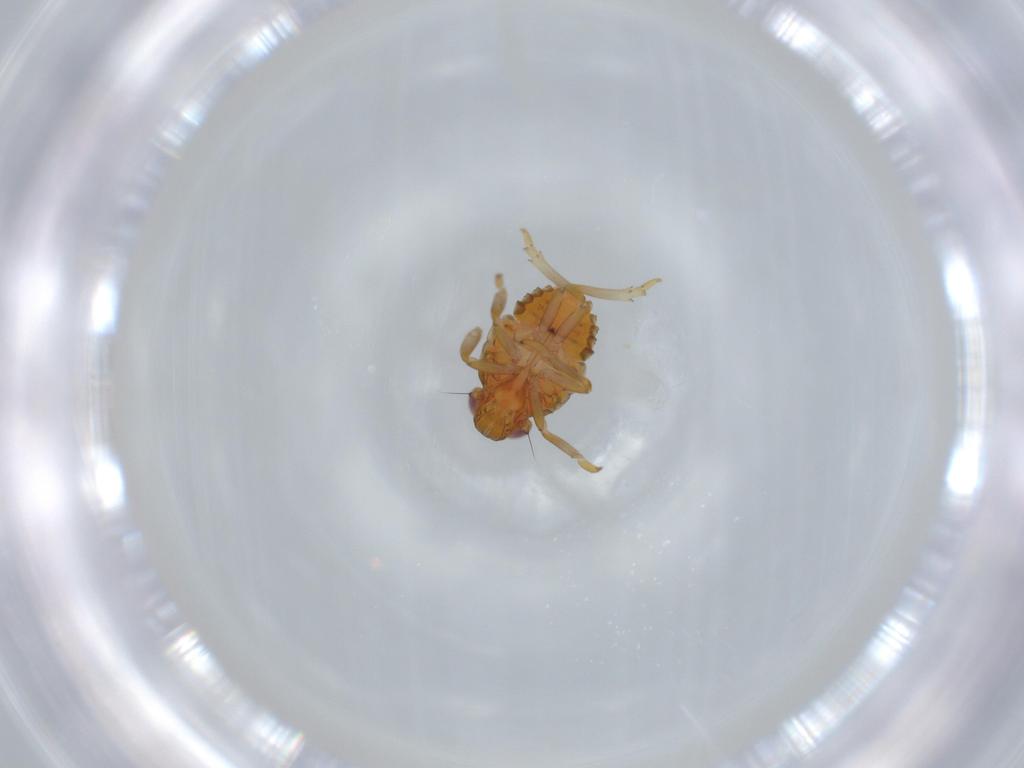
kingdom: Animalia
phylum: Arthropoda
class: Insecta
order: Hemiptera
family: Issidae
